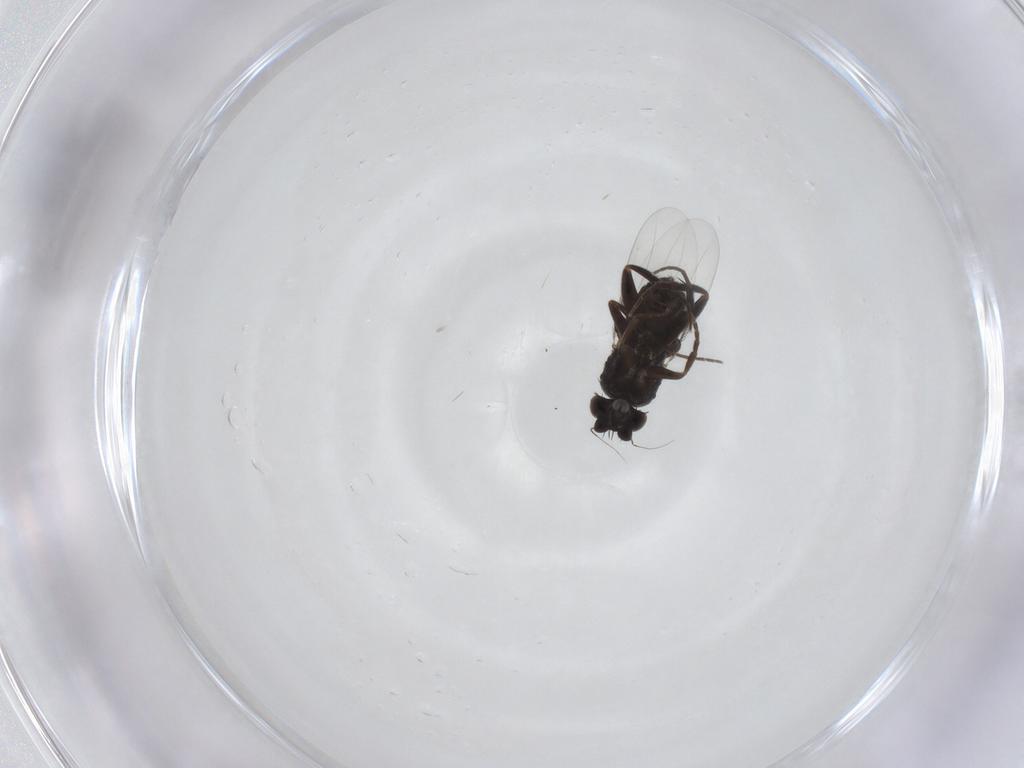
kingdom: Animalia
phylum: Arthropoda
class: Insecta
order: Diptera
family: Phoridae
